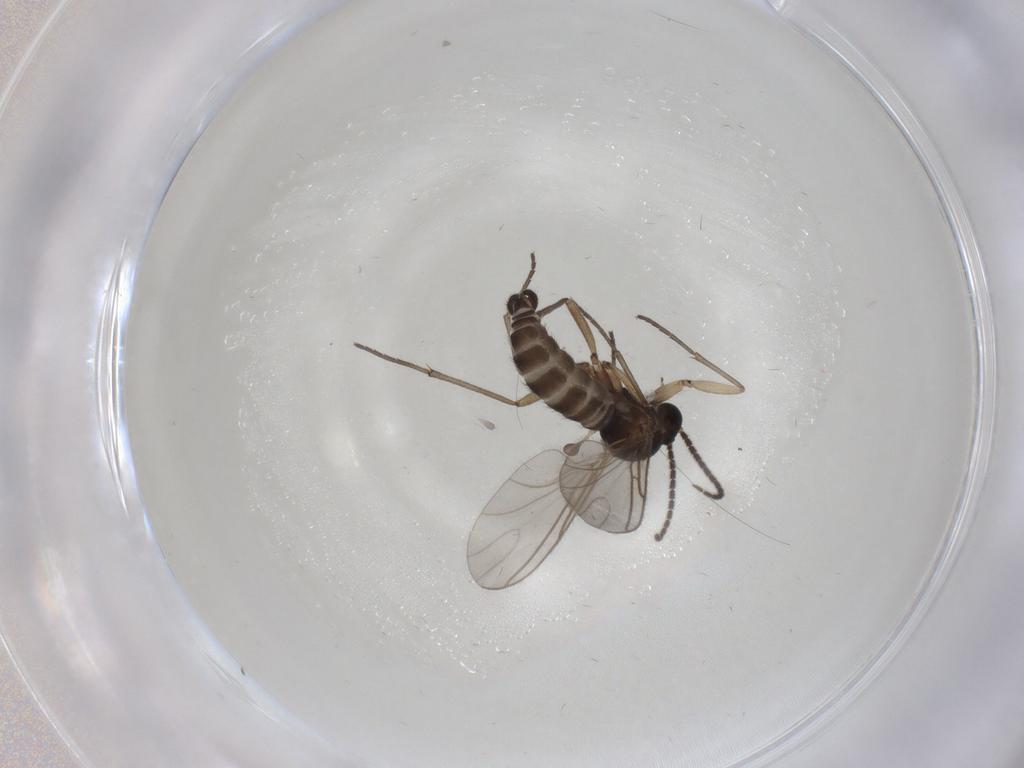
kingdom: Animalia
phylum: Arthropoda
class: Insecta
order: Diptera
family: Sciaridae
